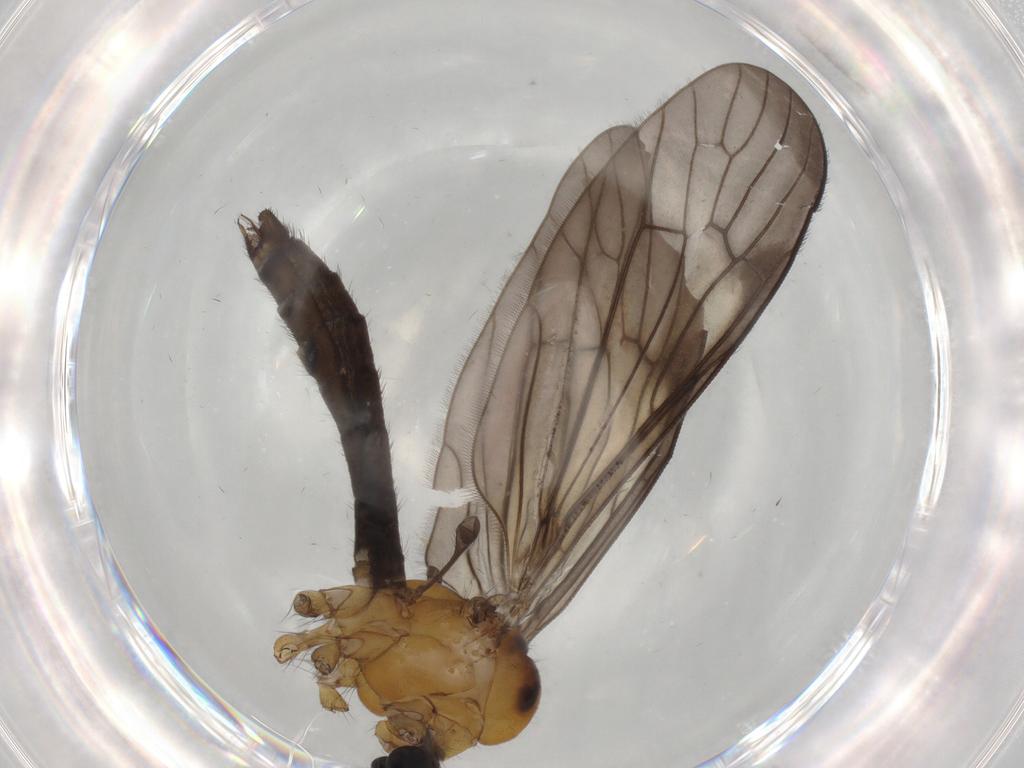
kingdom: Animalia
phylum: Arthropoda
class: Insecta
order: Diptera
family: Limoniidae
